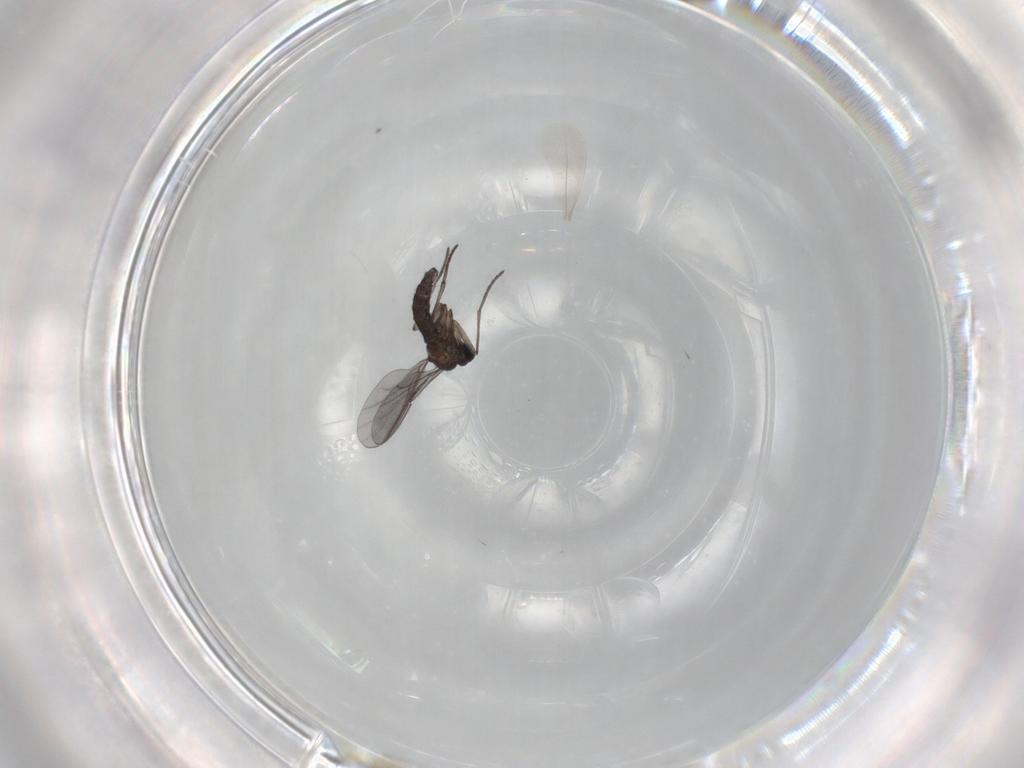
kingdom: Animalia
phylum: Arthropoda
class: Insecta
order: Diptera
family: Cecidomyiidae
